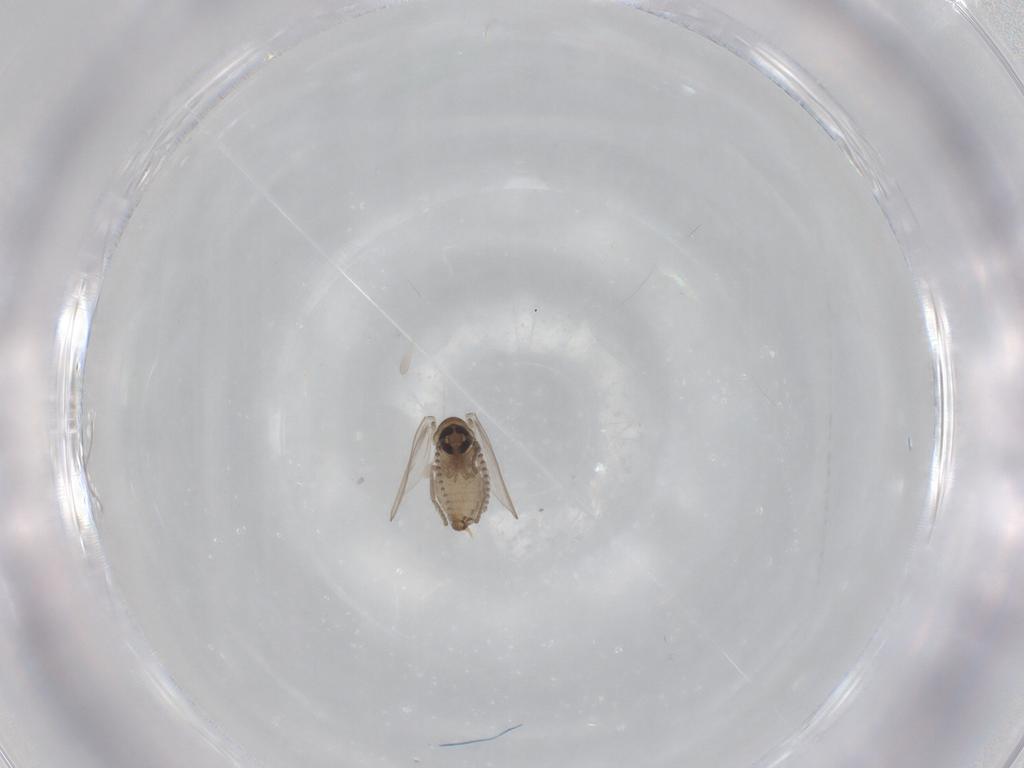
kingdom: Animalia
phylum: Arthropoda
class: Insecta
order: Diptera
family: Psychodidae
